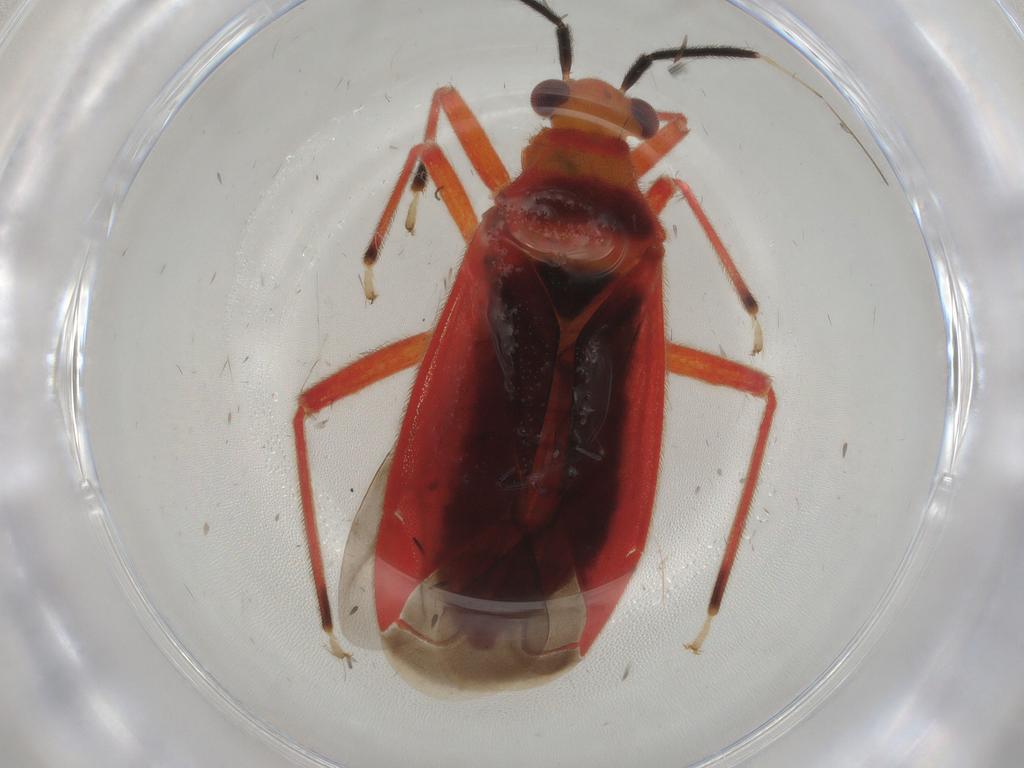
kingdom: Animalia
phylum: Arthropoda
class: Insecta
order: Hemiptera
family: Miridae
